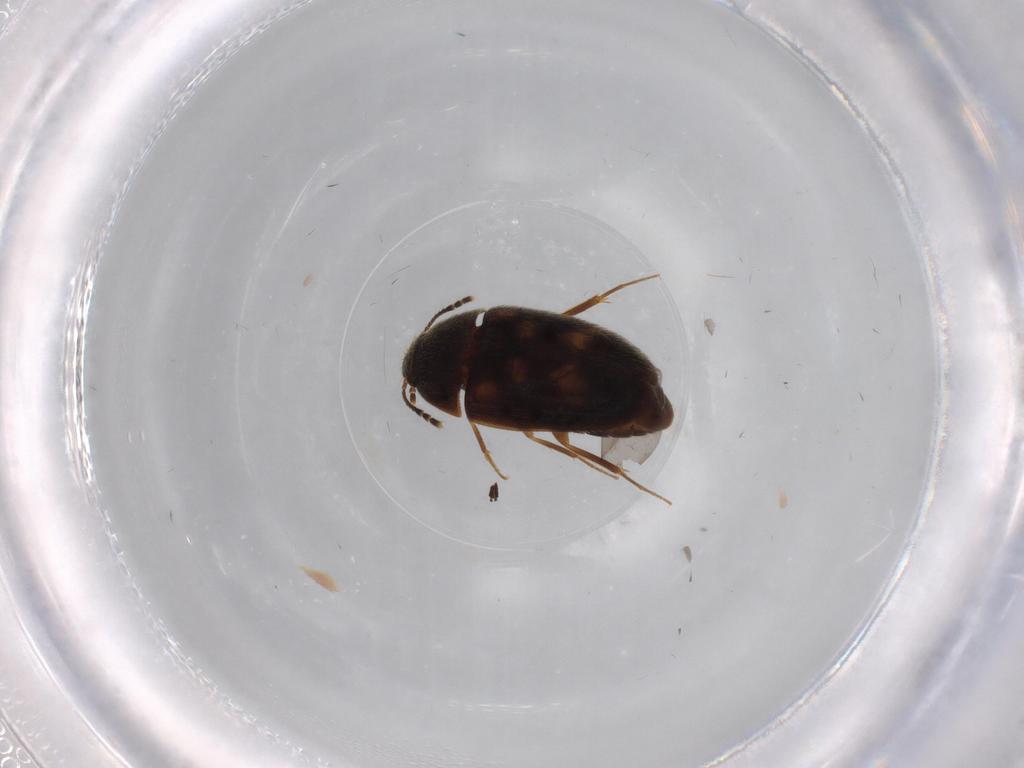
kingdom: Animalia
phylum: Arthropoda
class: Insecta
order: Coleoptera
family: Mycetophagidae
